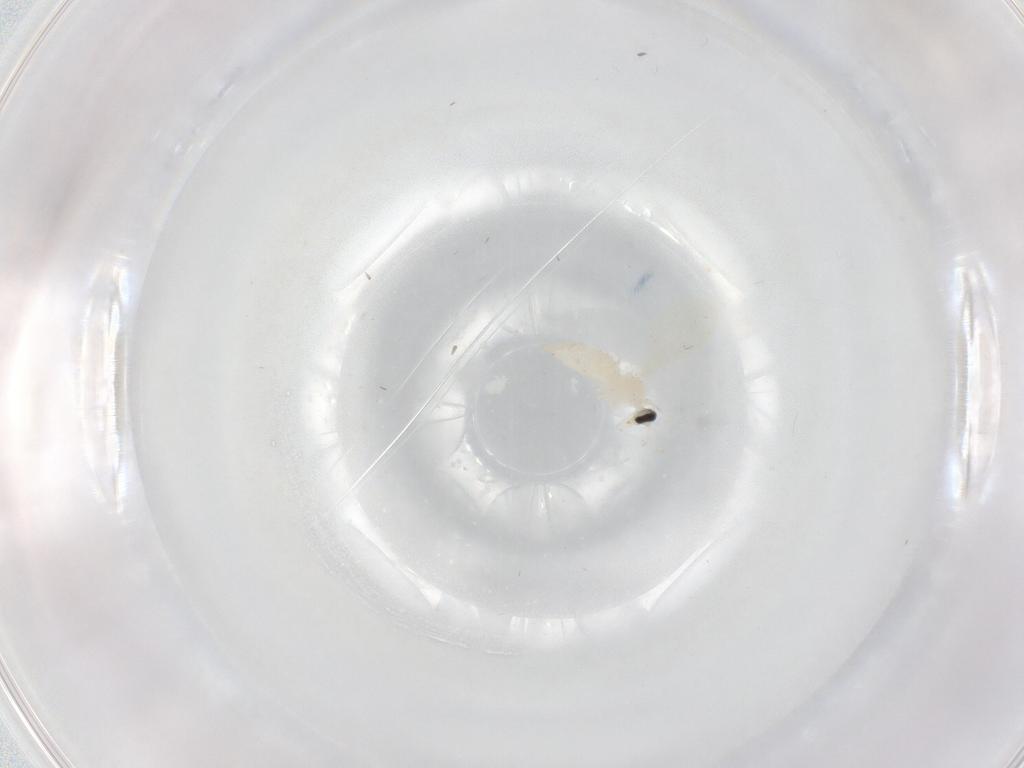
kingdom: Animalia
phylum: Arthropoda
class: Insecta
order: Diptera
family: Cecidomyiidae
